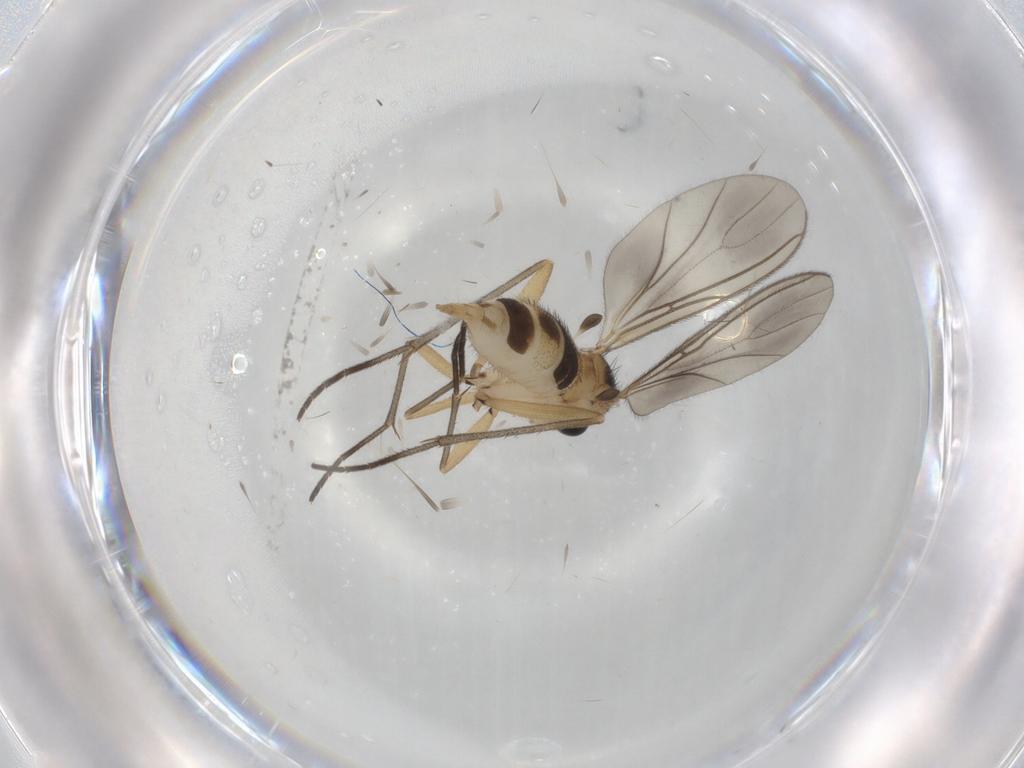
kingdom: Animalia
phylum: Arthropoda
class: Insecta
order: Diptera
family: Sciaridae
